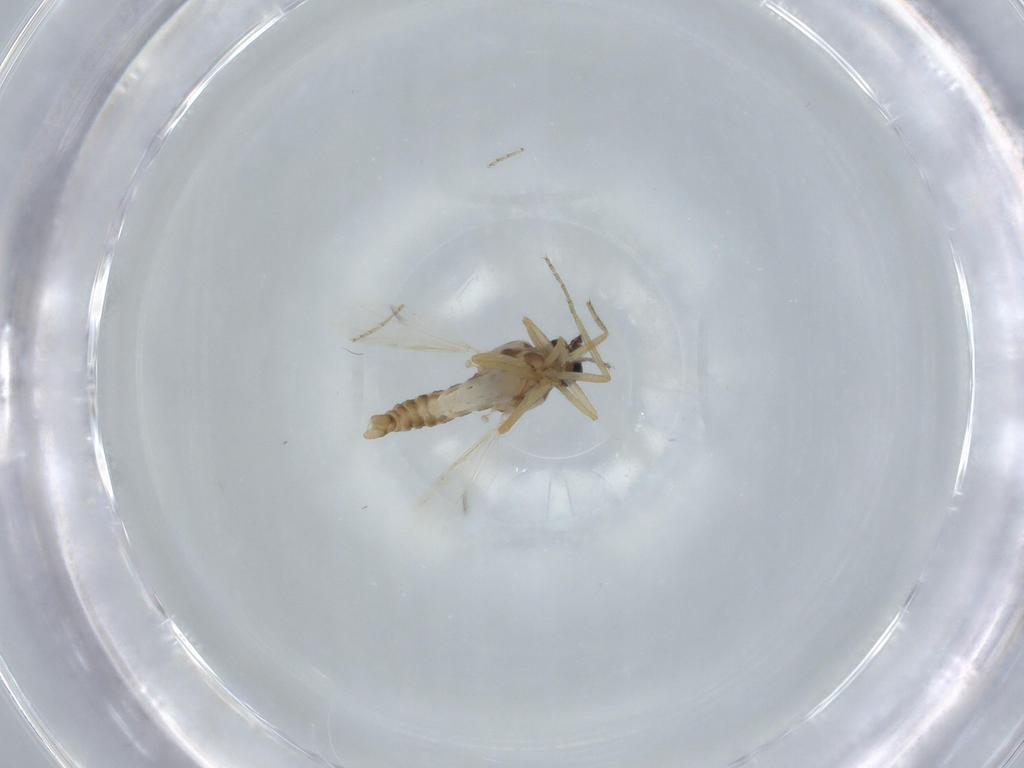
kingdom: Animalia
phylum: Arthropoda
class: Insecta
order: Diptera
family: Cecidomyiidae
